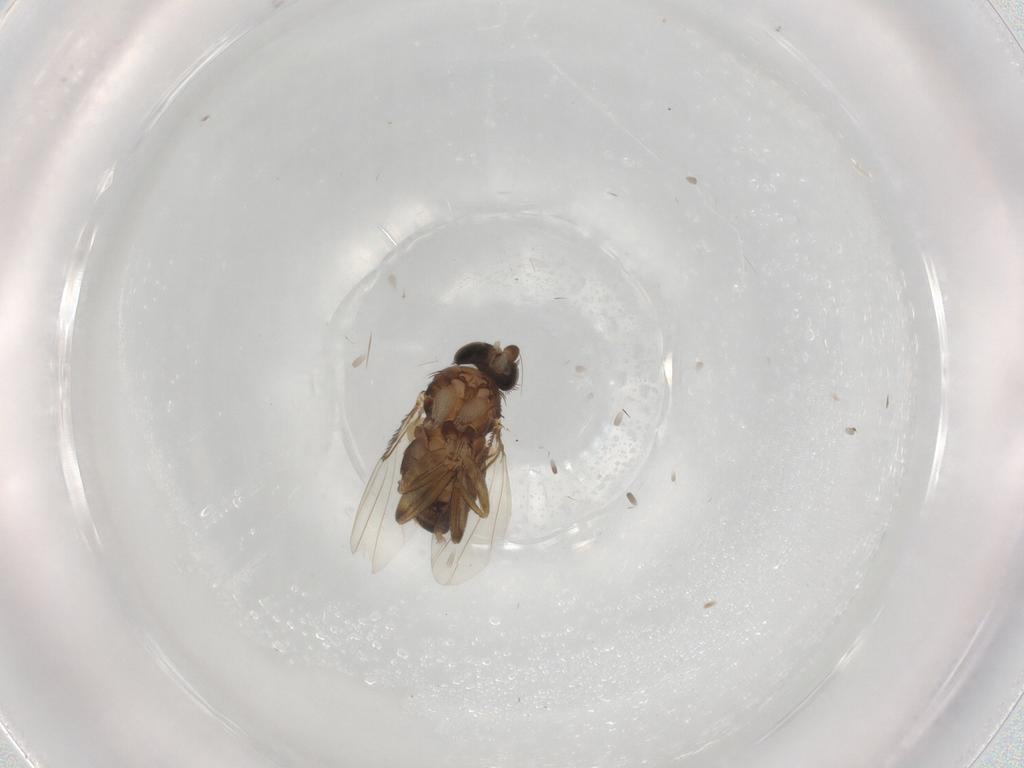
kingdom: Animalia
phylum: Arthropoda
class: Insecta
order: Diptera
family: Phoridae
